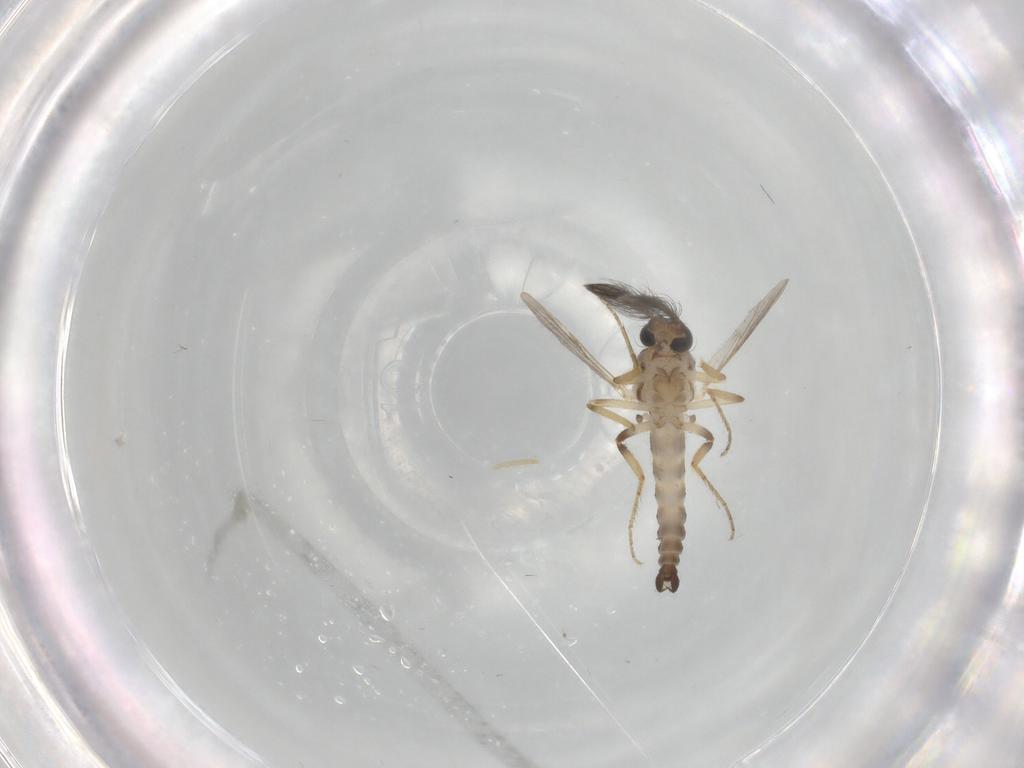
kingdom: Animalia
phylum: Arthropoda
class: Insecta
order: Diptera
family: Ceratopogonidae
